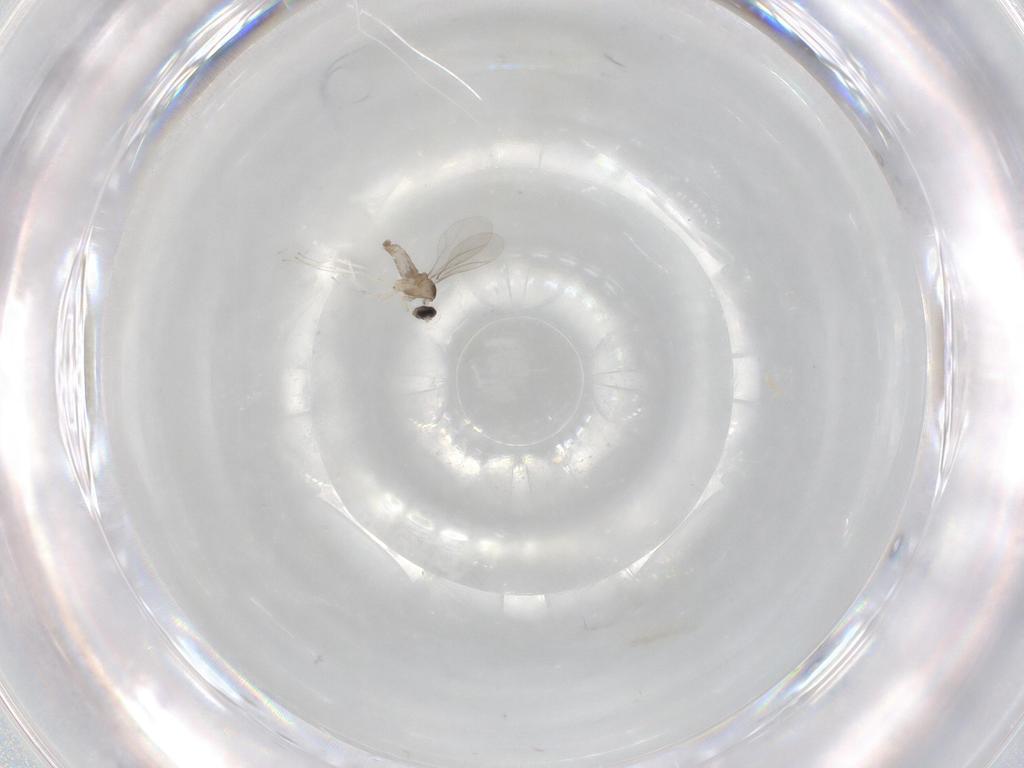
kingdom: Animalia
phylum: Arthropoda
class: Insecta
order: Diptera
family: Cecidomyiidae
